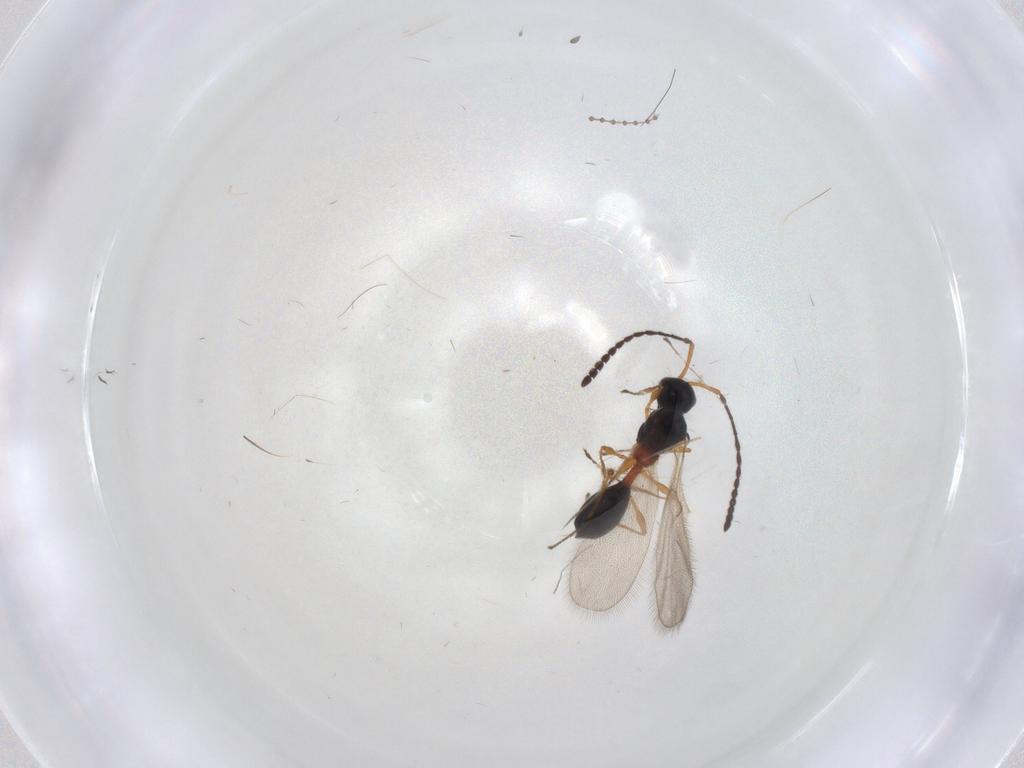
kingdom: Animalia
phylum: Arthropoda
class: Insecta
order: Hymenoptera
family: Diapriidae
